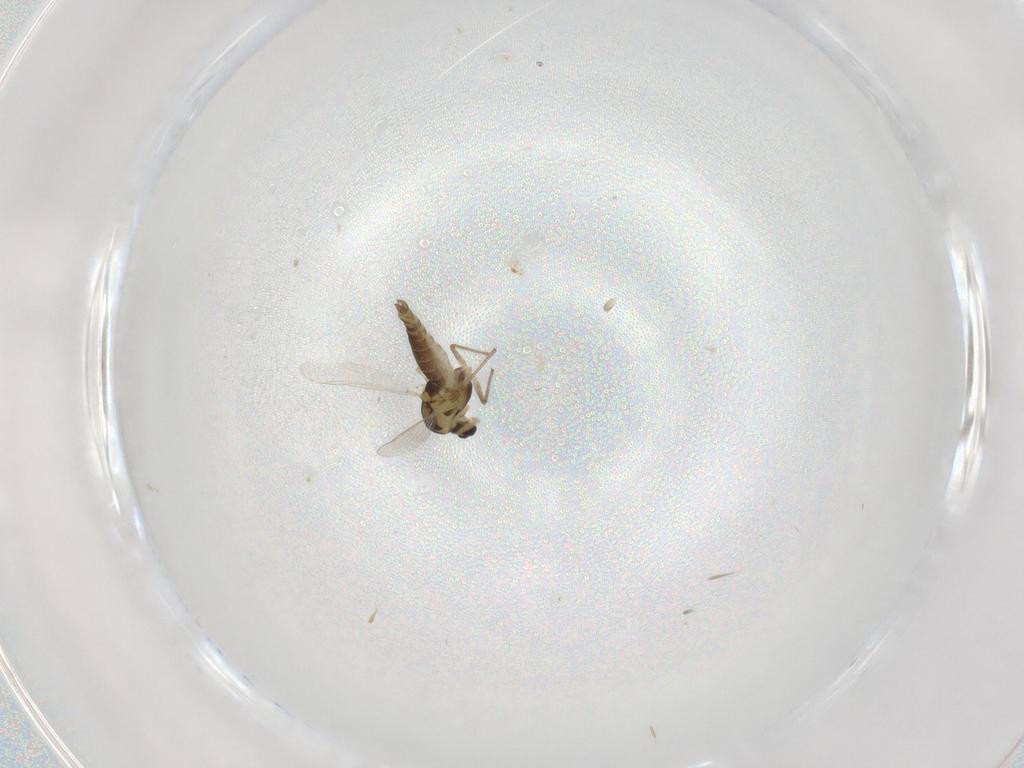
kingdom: Animalia
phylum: Arthropoda
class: Insecta
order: Diptera
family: Chironomidae
